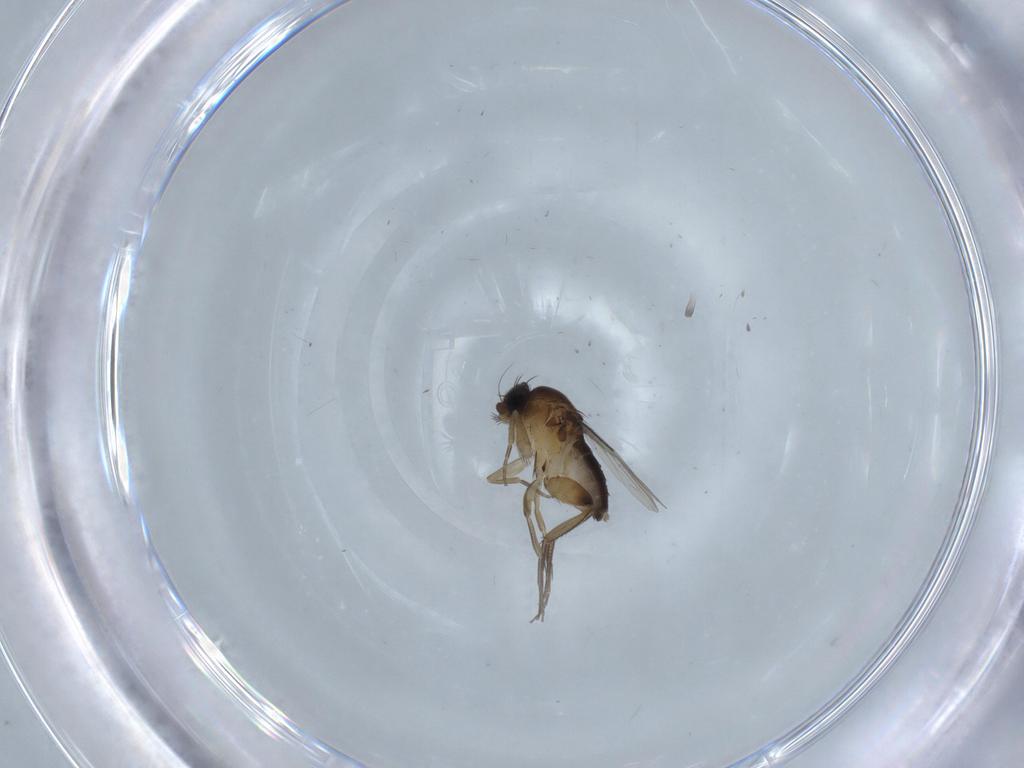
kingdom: Animalia
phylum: Arthropoda
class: Insecta
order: Diptera
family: Phoridae
